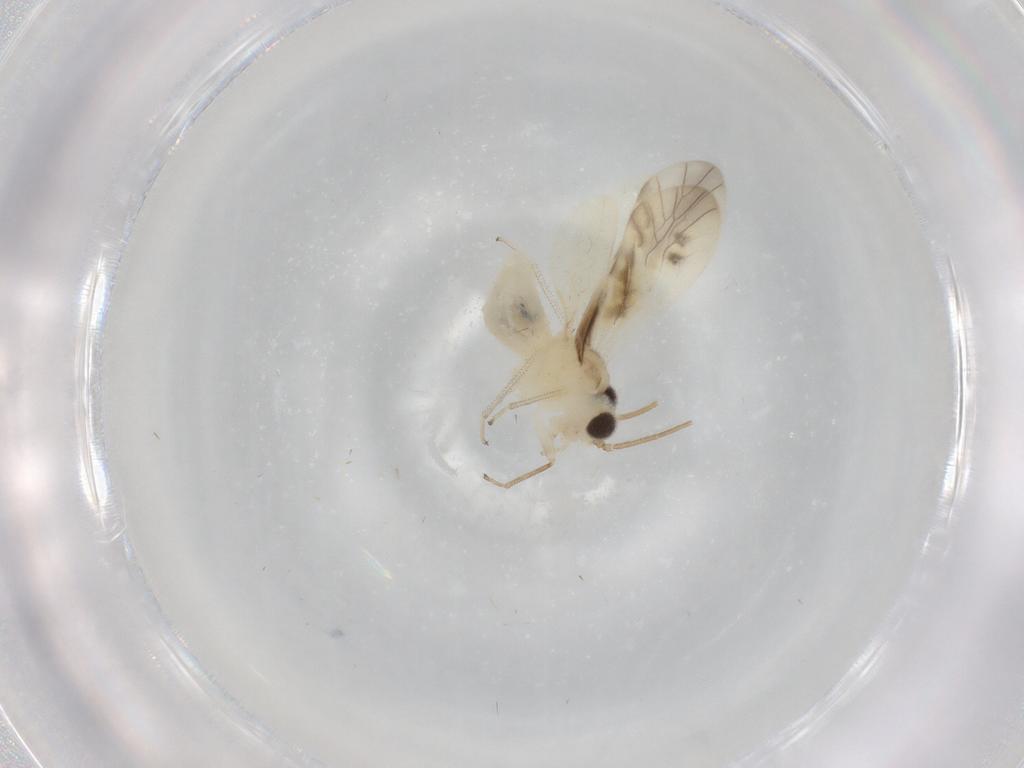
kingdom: Animalia
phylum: Arthropoda
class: Insecta
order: Psocodea
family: Caeciliusidae
